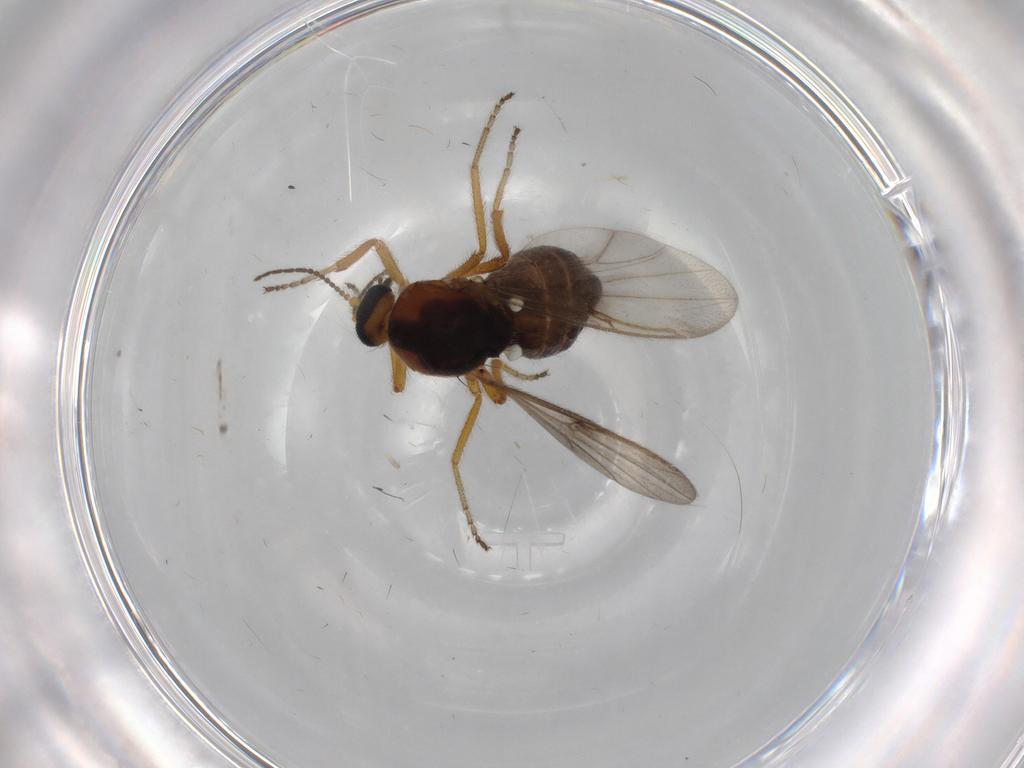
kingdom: Animalia
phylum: Arthropoda
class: Insecta
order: Diptera
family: Ceratopogonidae
